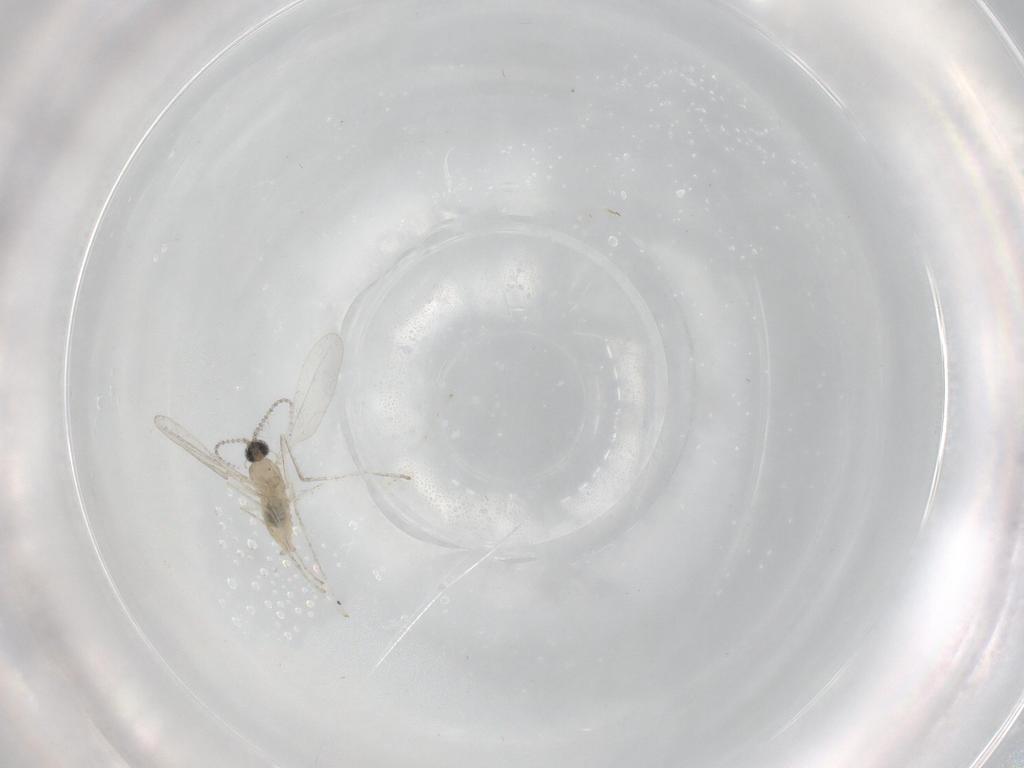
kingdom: Animalia
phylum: Arthropoda
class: Insecta
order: Diptera
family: Cecidomyiidae
